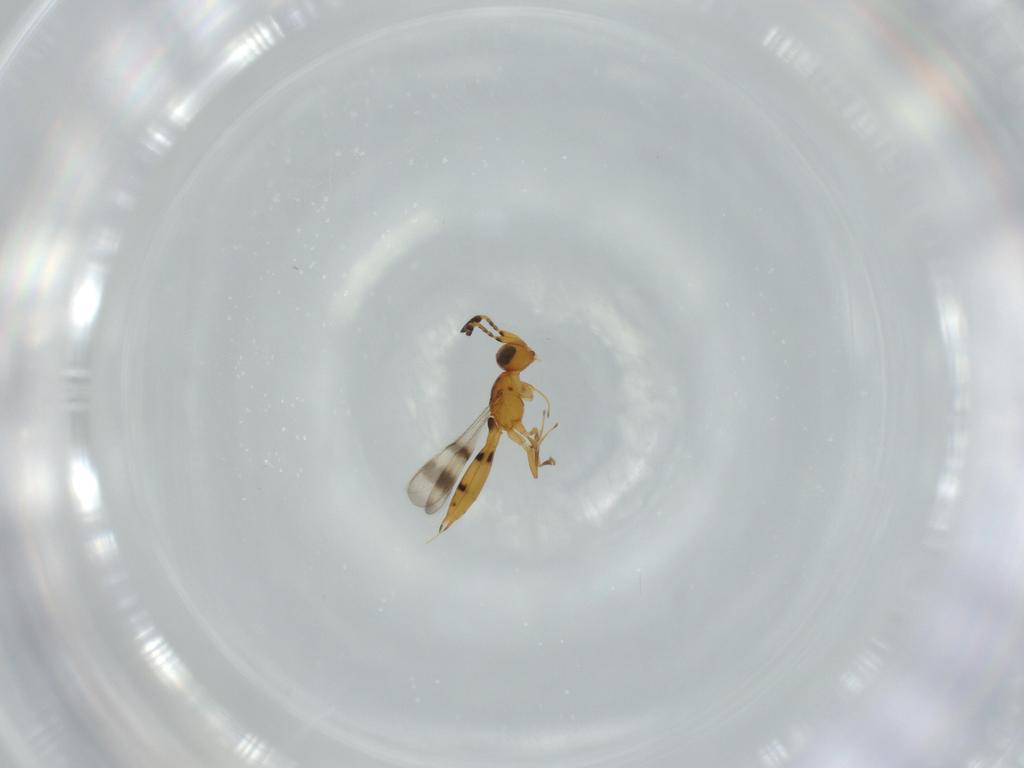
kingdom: Animalia
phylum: Arthropoda
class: Insecta
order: Hymenoptera
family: Scelionidae
